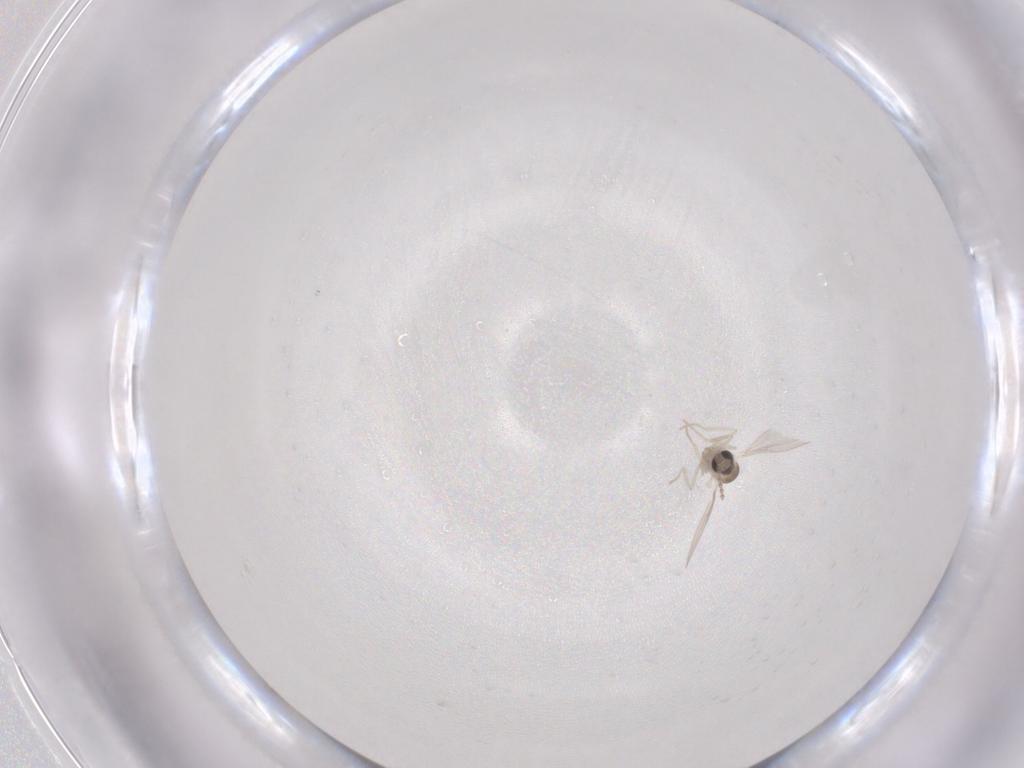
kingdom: Animalia
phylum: Arthropoda
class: Insecta
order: Diptera
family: Cecidomyiidae
